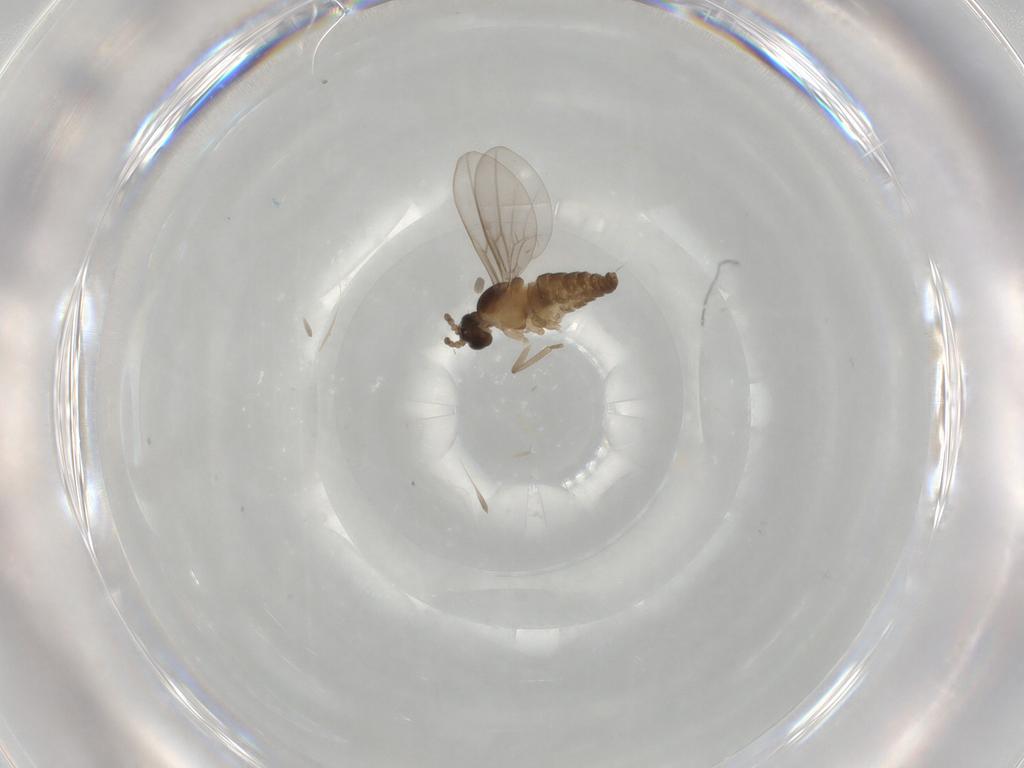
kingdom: Animalia
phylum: Arthropoda
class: Insecta
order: Diptera
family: Cecidomyiidae
